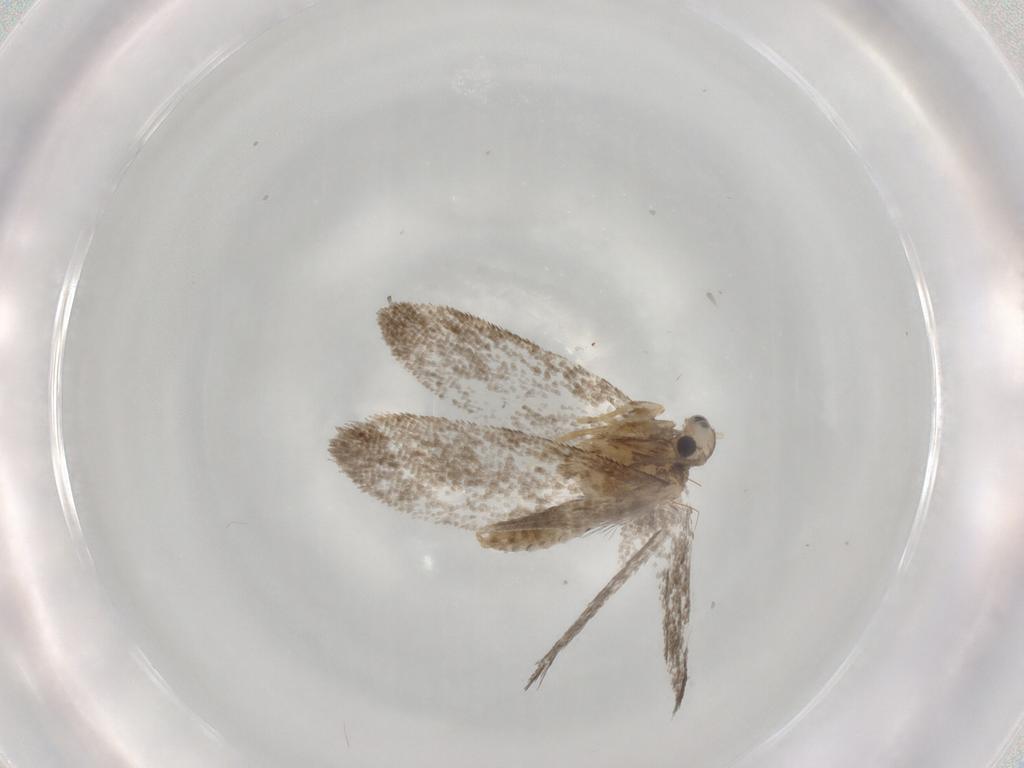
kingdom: Animalia
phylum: Arthropoda
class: Insecta
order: Lepidoptera
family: Psychidae
